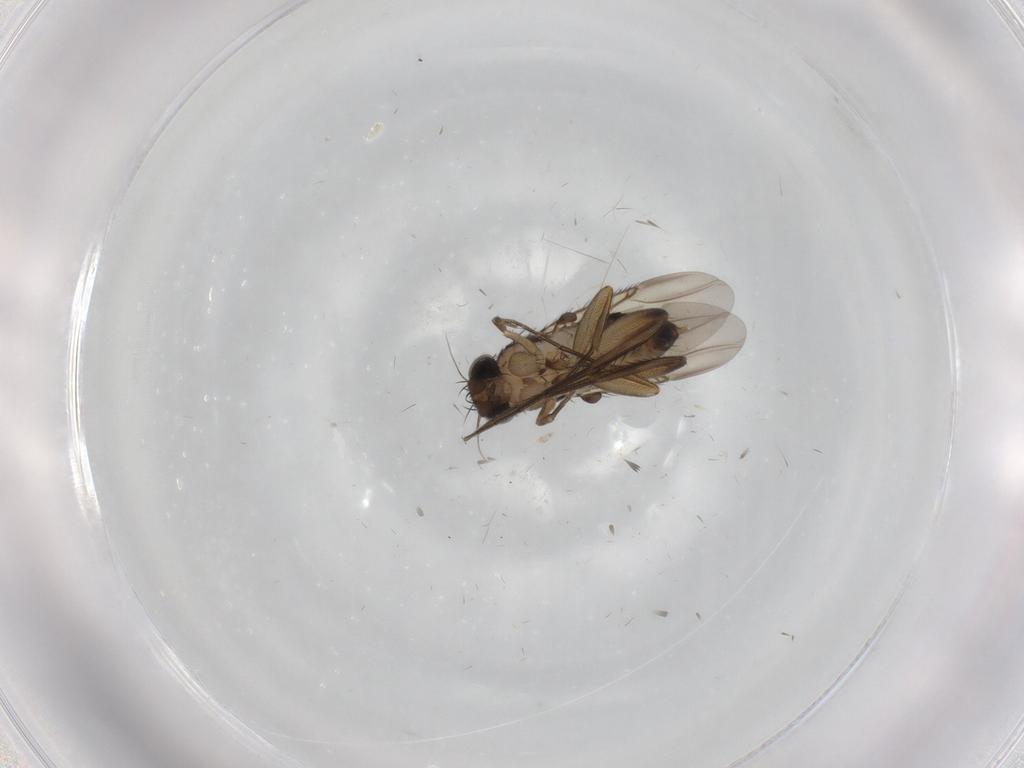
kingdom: Animalia
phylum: Arthropoda
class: Insecta
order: Diptera
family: Phoridae
